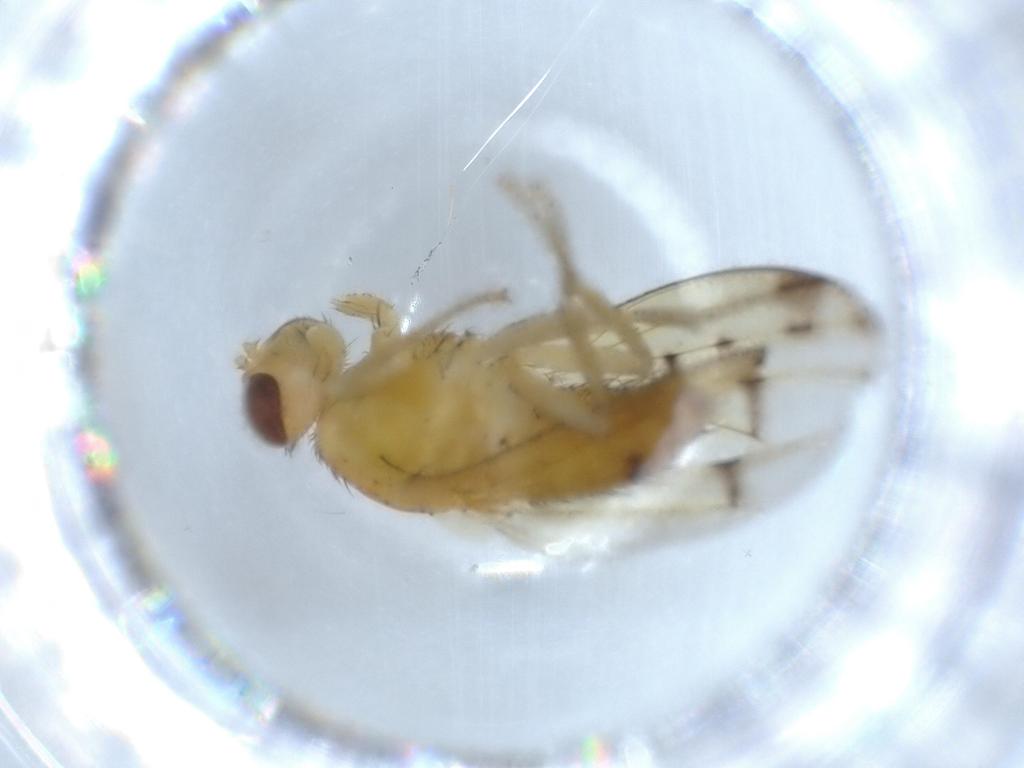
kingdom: Animalia
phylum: Arthropoda
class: Insecta
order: Diptera
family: Lauxaniidae
